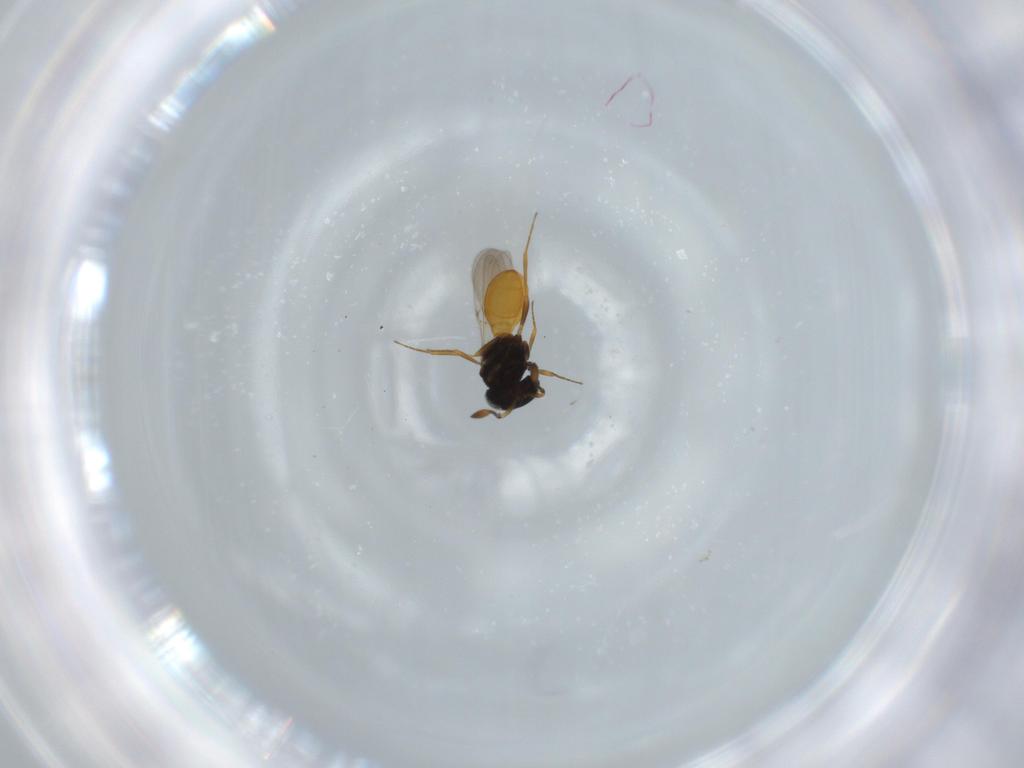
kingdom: Animalia
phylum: Arthropoda
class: Insecta
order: Hymenoptera
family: Scelionidae
